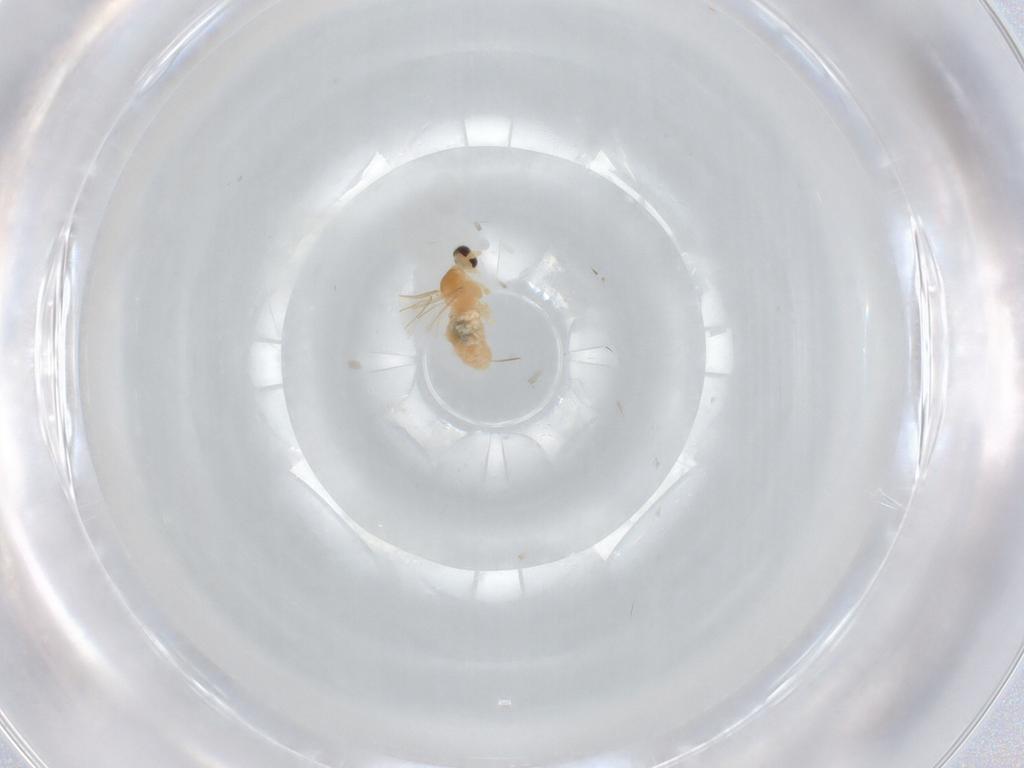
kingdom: Animalia
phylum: Arthropoda
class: Insecta
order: Diptera
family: Cecidomyiidae
